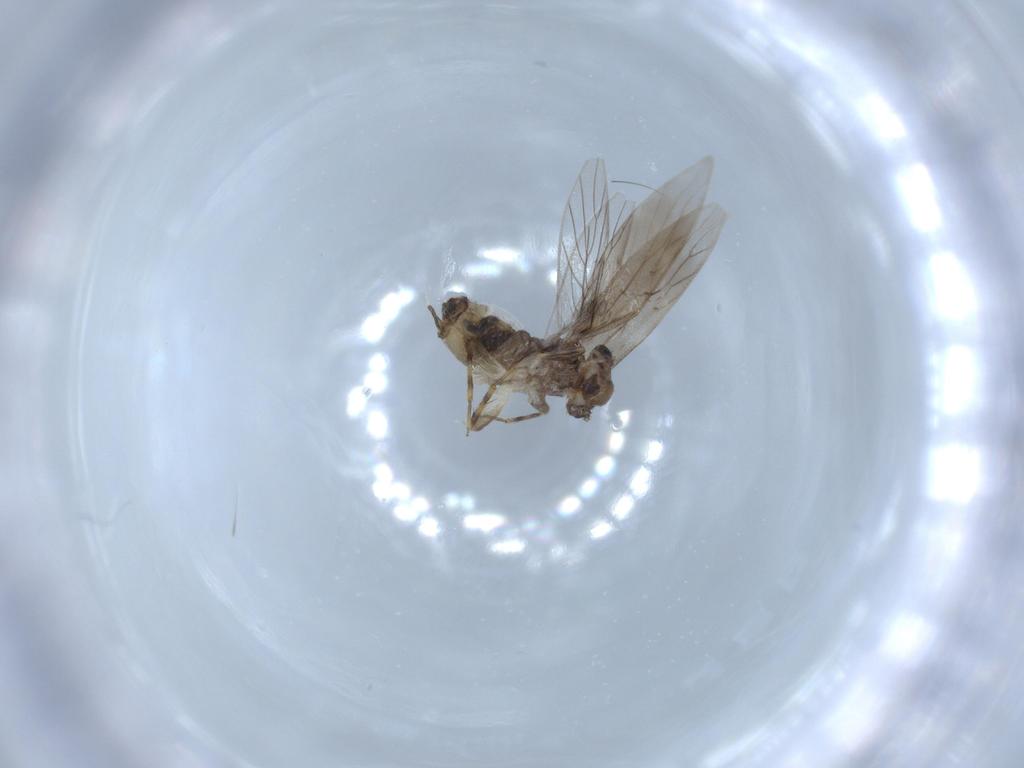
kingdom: Animalia
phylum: Arthropoda
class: Insecta
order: Psocodea
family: Lepidopsocidae
